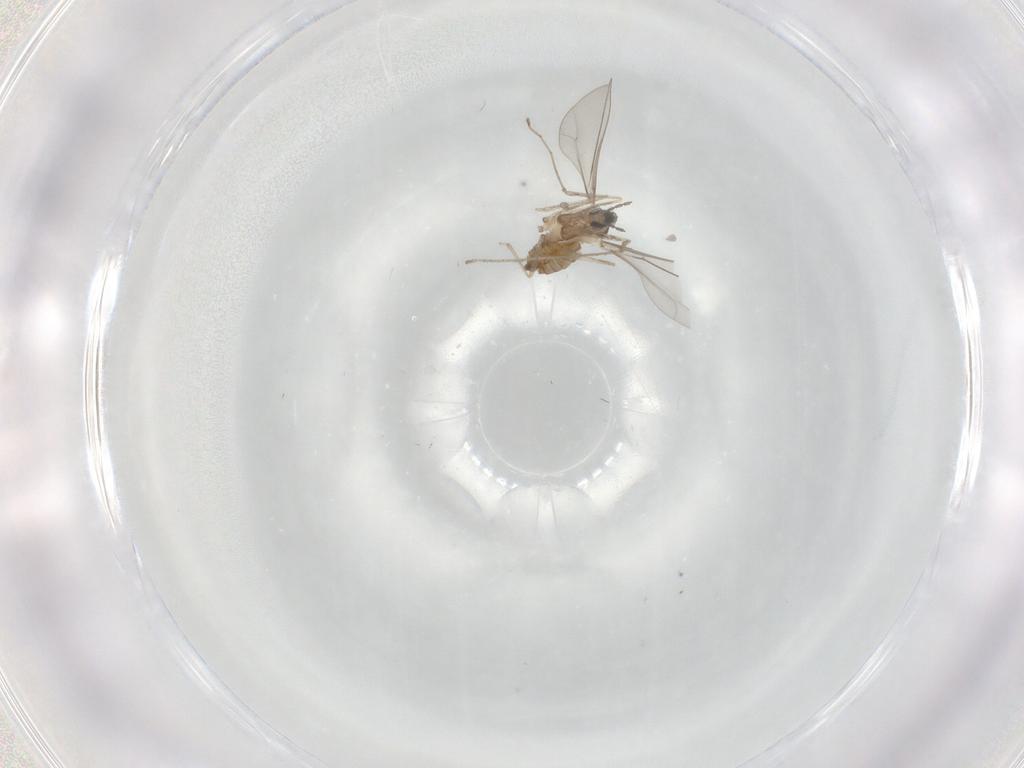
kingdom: Animalia
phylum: Arthropoda
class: Insecta
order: Diptera
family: Cecidomyiidae
